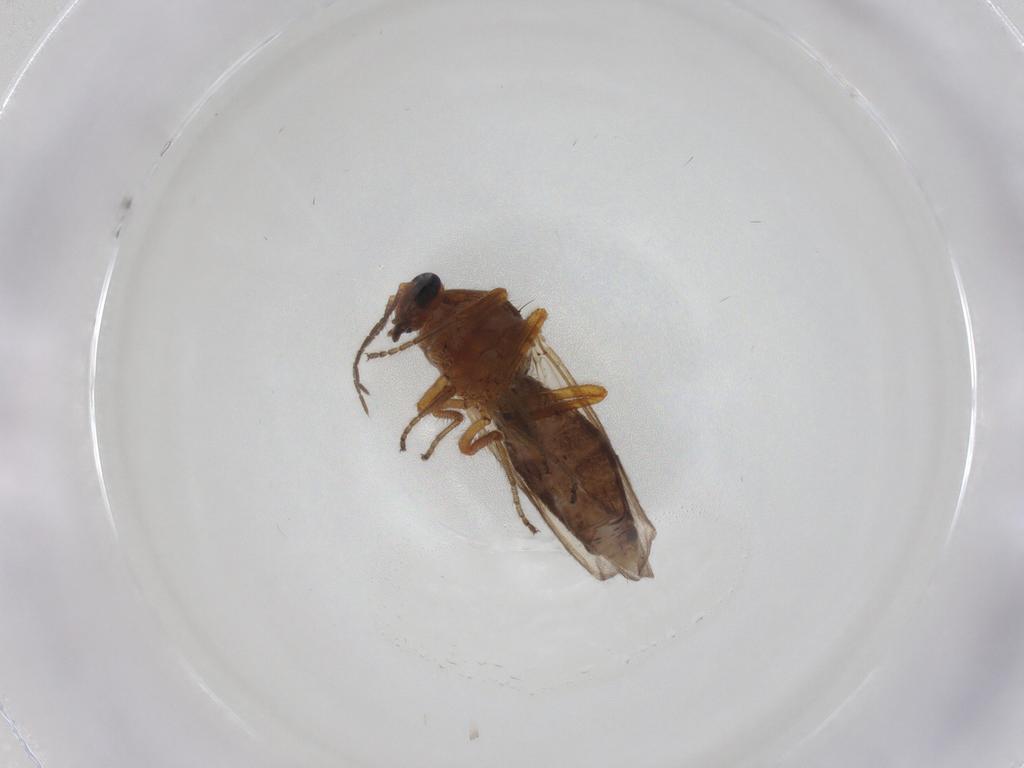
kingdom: Animalia
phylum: Arthropoda
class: Insecta
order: Diptera
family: Ceratopogonidae
